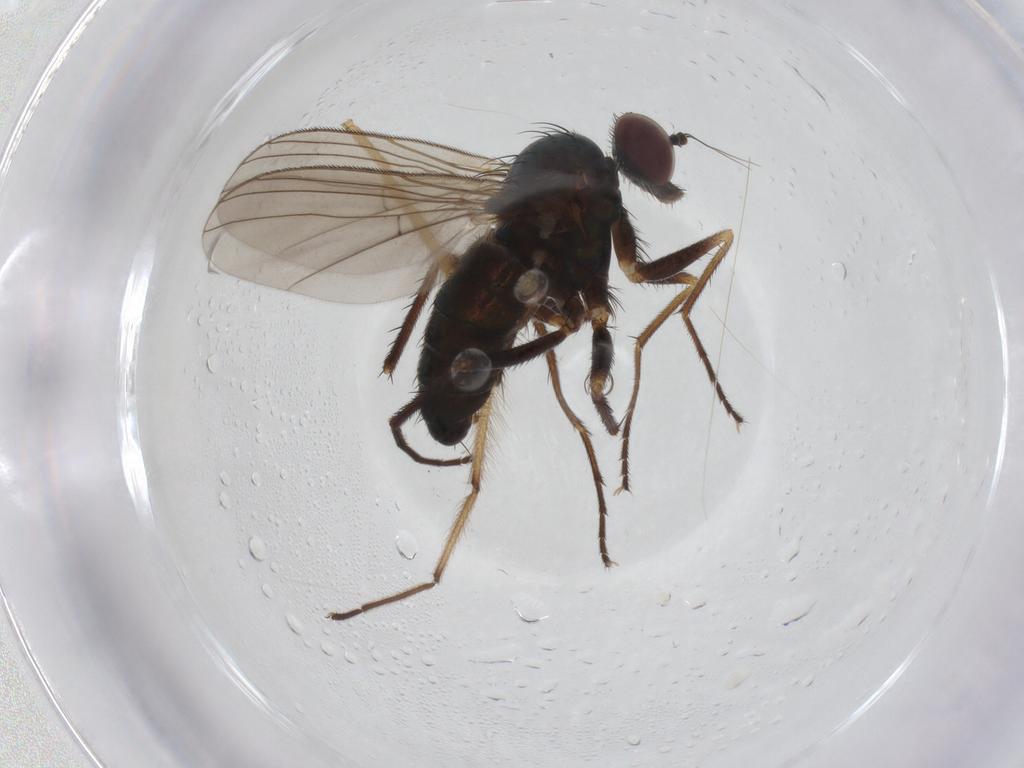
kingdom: Animalia
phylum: Arthropoda
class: Insecta
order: Diptera
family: Dolichopodidae
